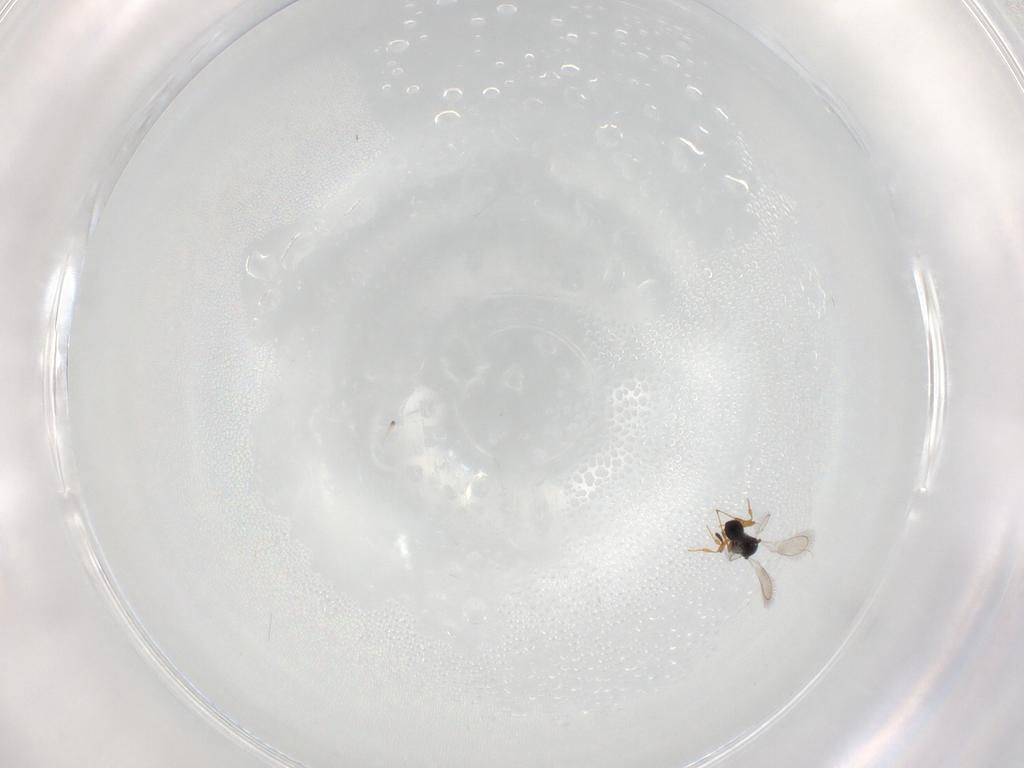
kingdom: Animalia
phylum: Arthropoda
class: Insecta
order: Hymenoptera
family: Platygastridae
